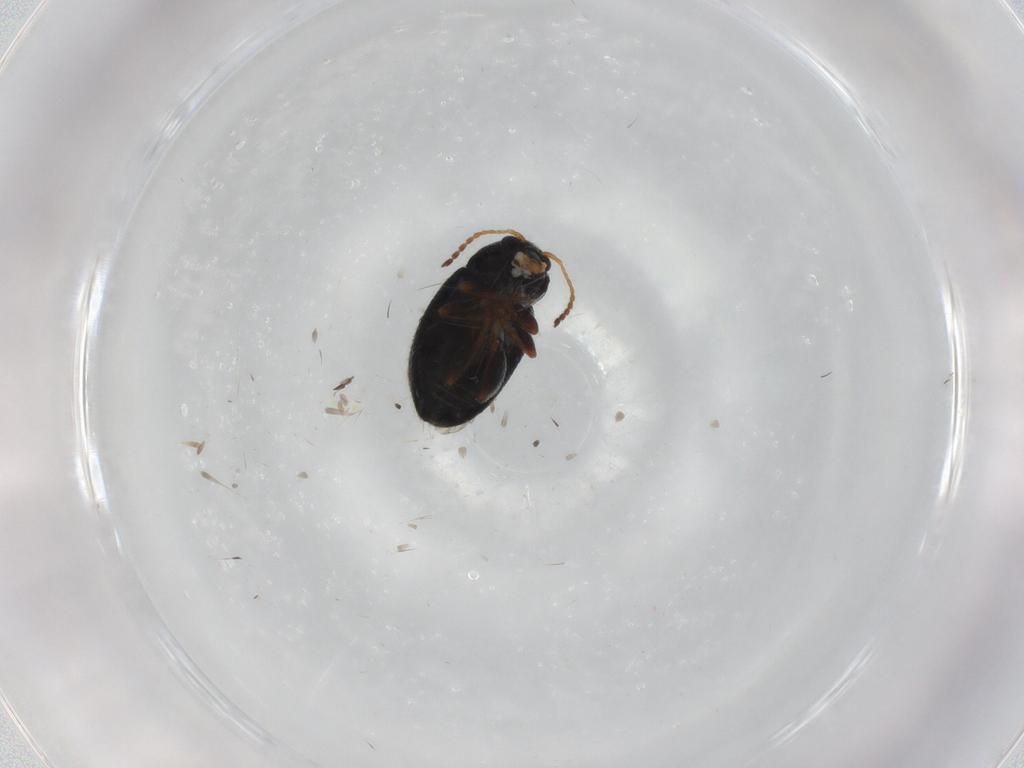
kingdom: Animalia
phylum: Arthropoda
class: Insecta
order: Coleoptera
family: Chrysomelidae
